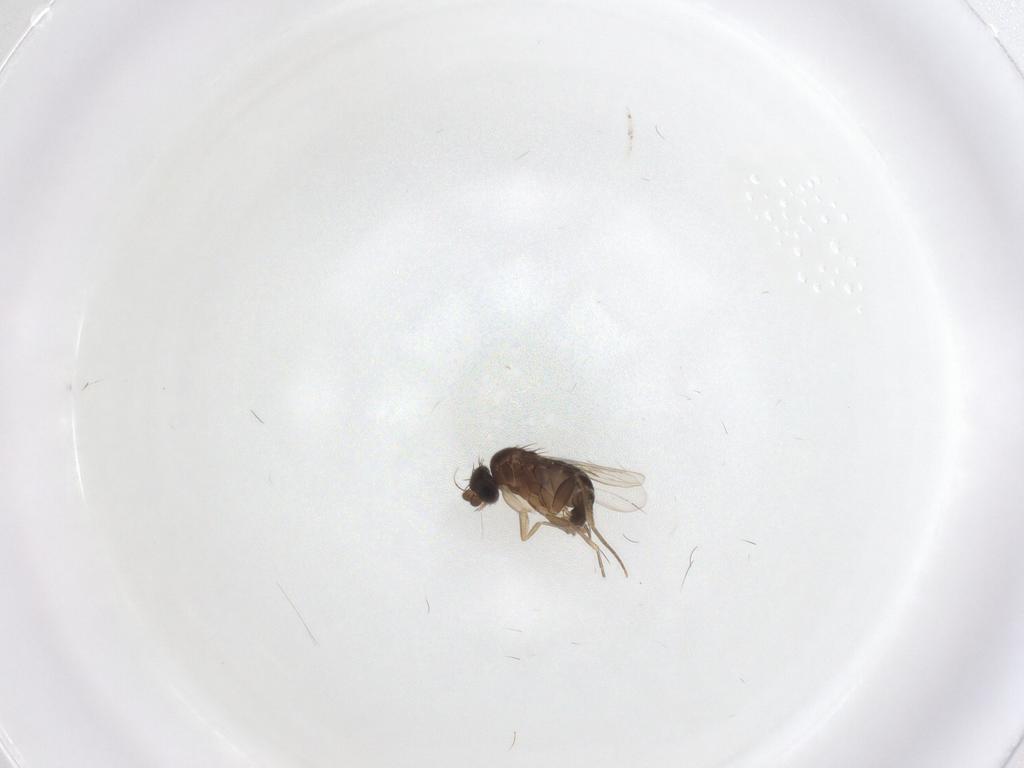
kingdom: Animalia
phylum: Arthropoda
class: Insecta
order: Diptera
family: Phoridae
